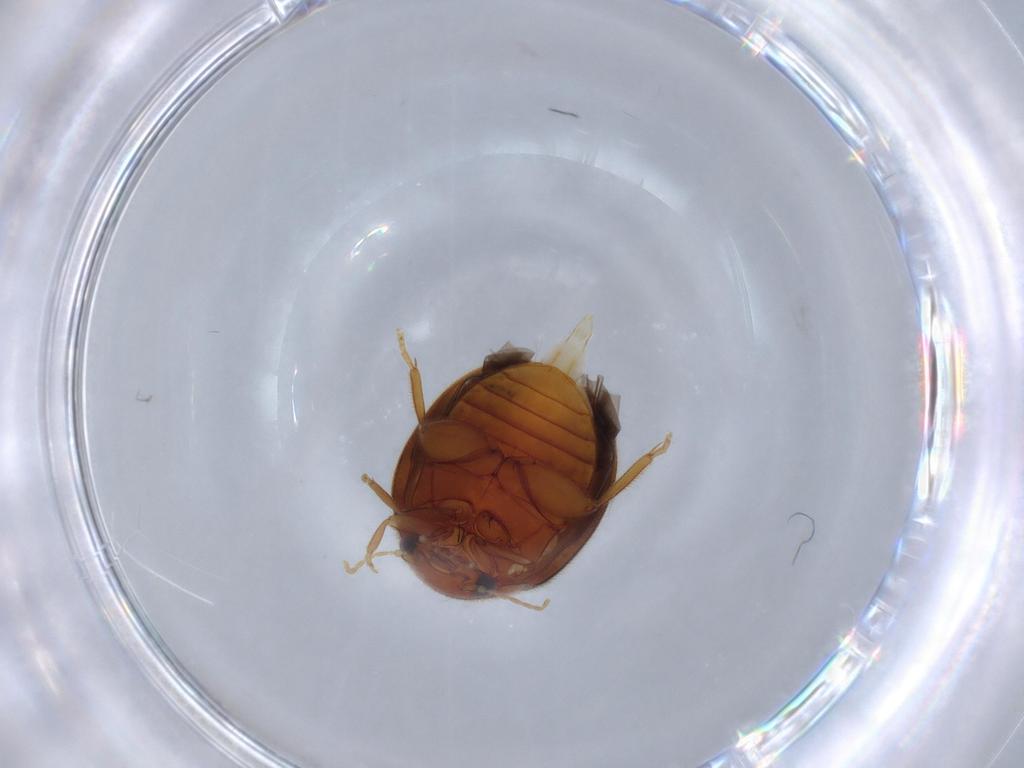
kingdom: Animalia
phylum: Arthropoda
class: Insecta
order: Coleoptera
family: Scirtidae
